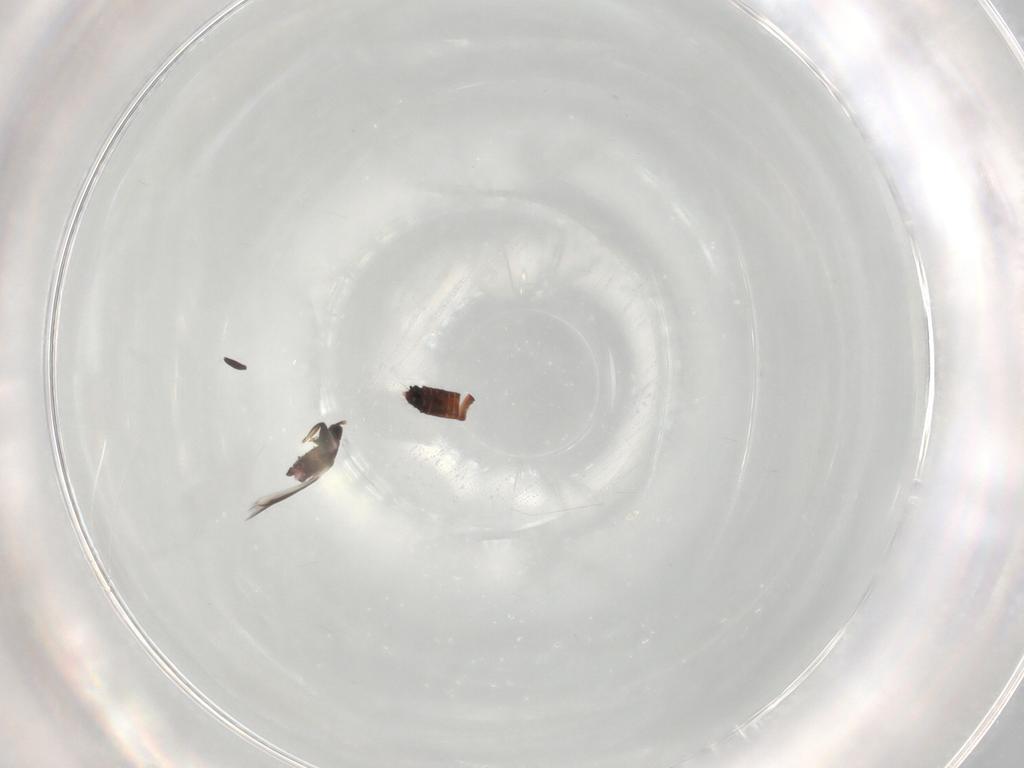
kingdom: Animalia
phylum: Arthropoda
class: Insecta
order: Thysanoptera
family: Aeolothripidae
